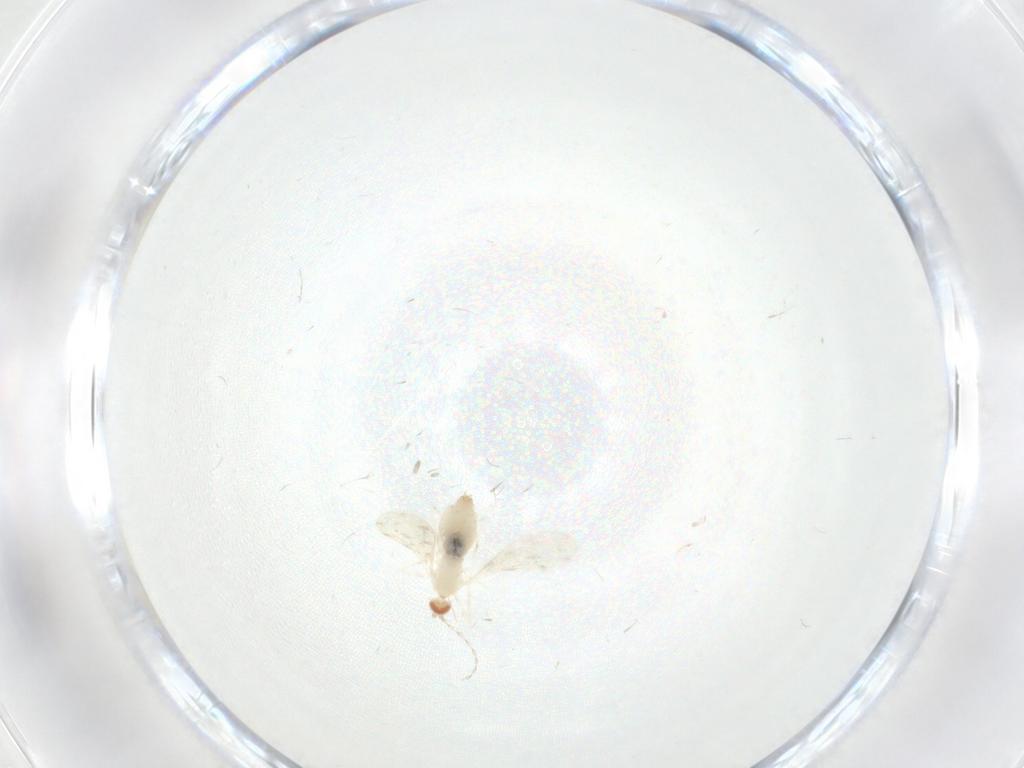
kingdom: Animalia
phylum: Arthropoda
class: Insecta
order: Diptera
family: Cecidomyiidae
